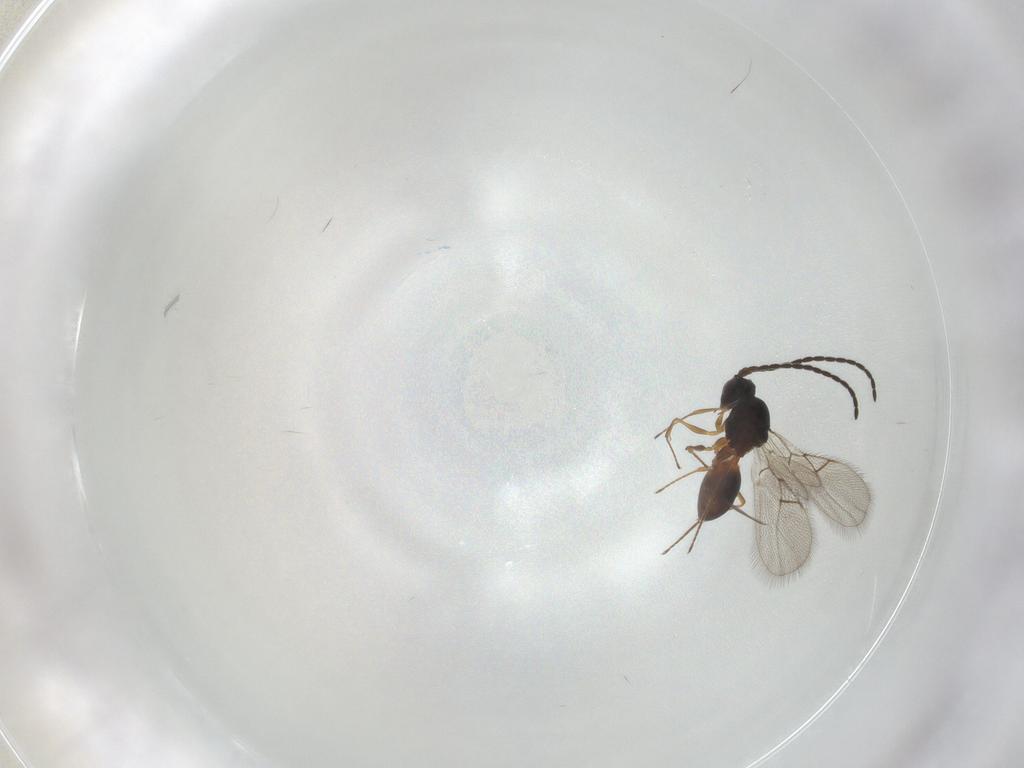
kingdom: Animalia
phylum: Arthropoda
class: Insecta
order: Hymenoptera
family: Figitidae
